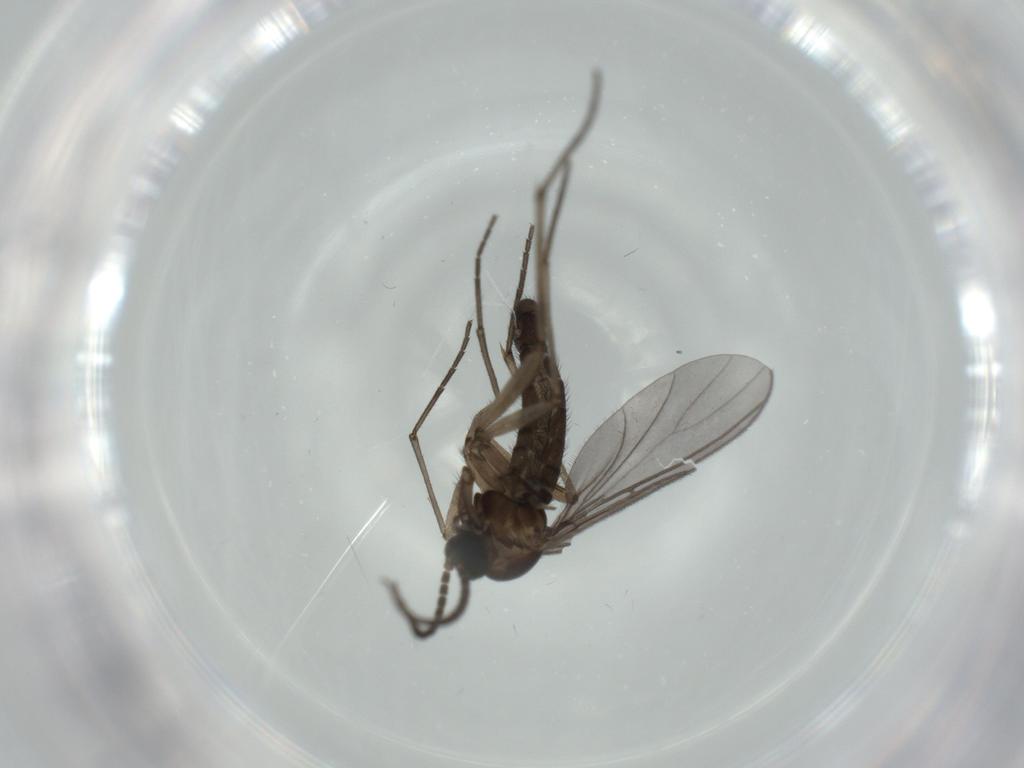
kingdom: Animalia
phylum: Arthropoda
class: Insecta
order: Diptera
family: Sciaridae
